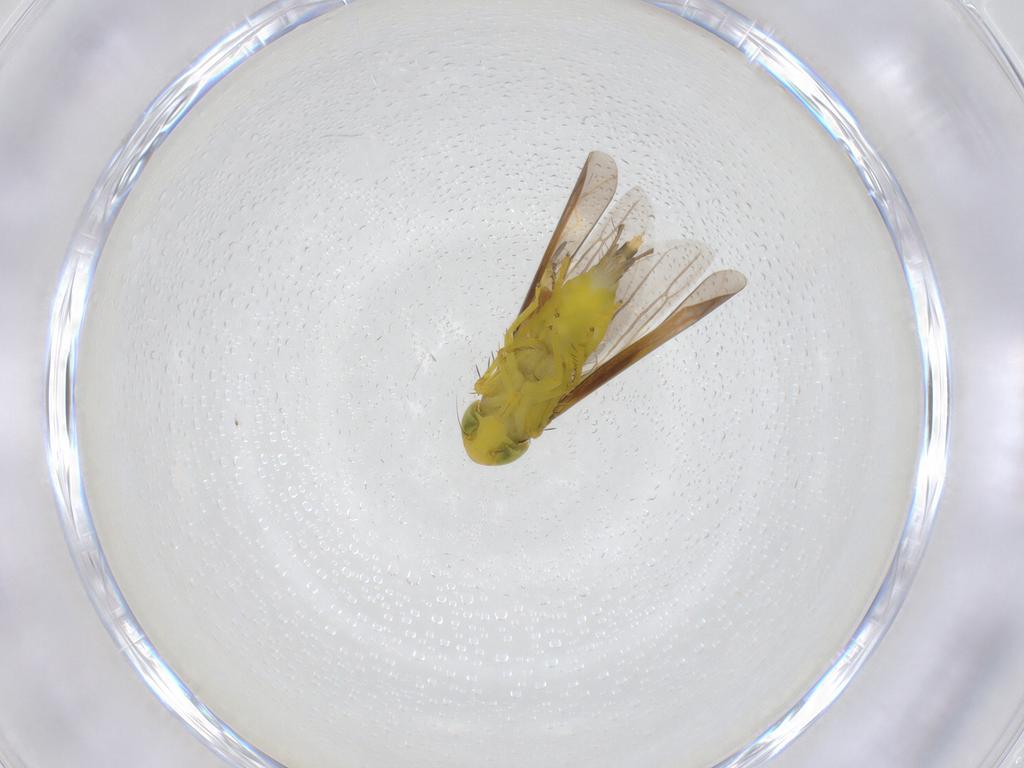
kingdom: Animalia
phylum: Arthropoda
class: Insecta
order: Hemiptera
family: Cicadellidae
